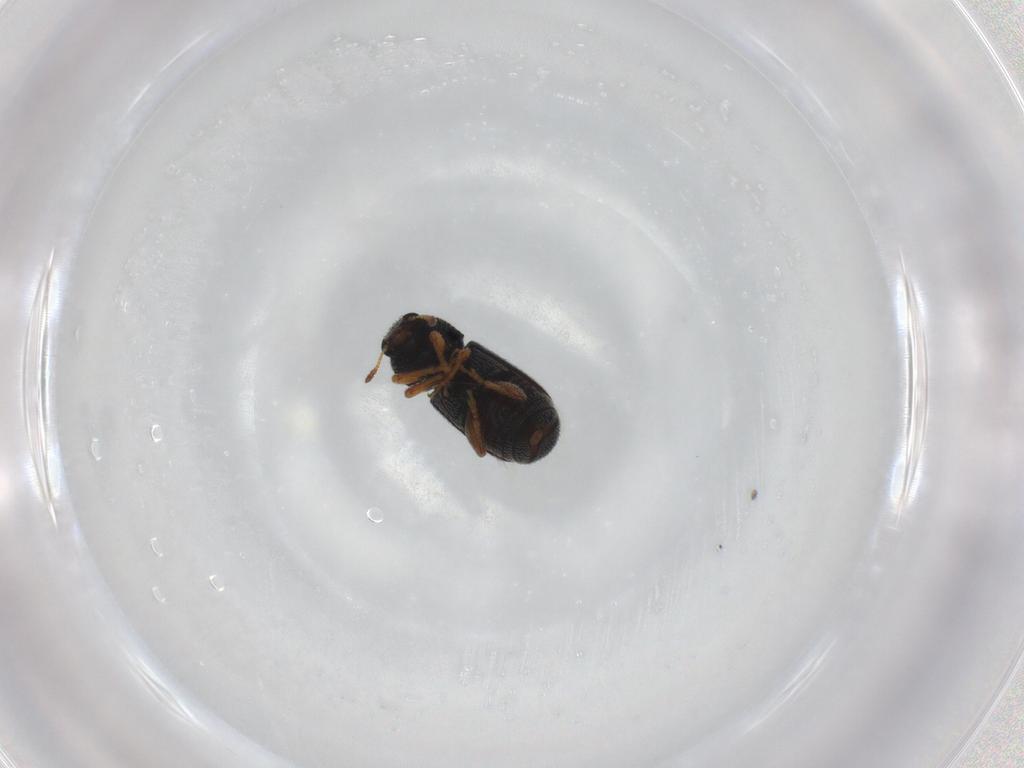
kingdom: Animalia
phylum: Arthropoda
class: Insecta
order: Coleoptera
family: Anthribidae
